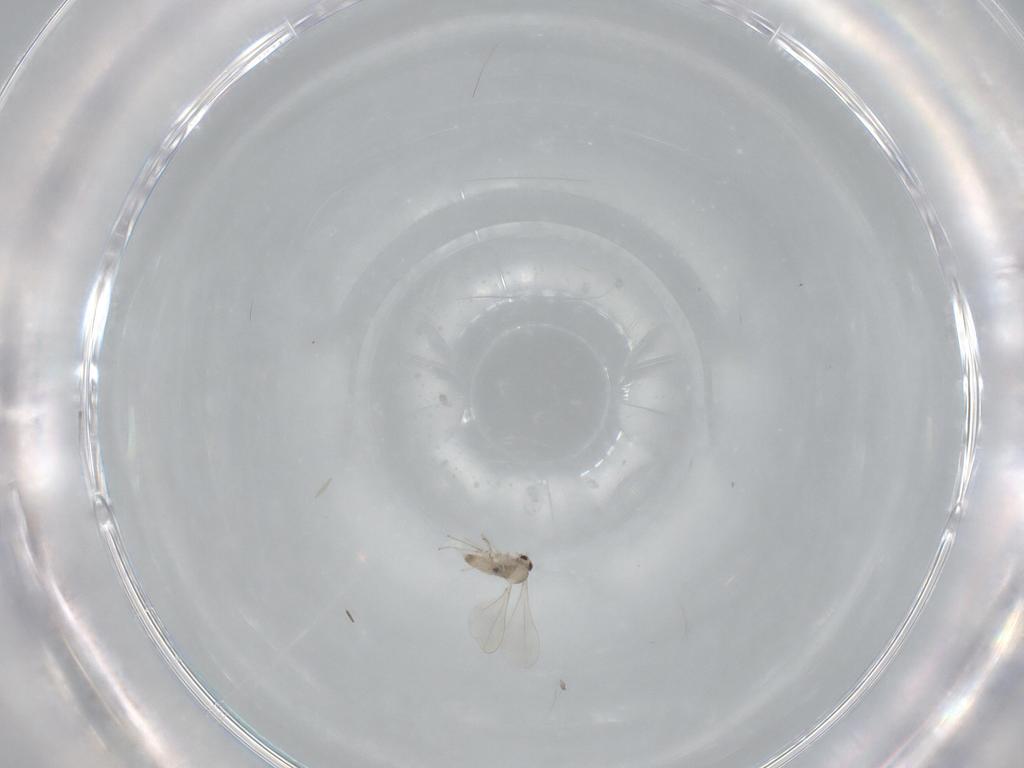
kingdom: Animalia
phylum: Arthropoda
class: Insecta
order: Diptera
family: Cecidomyiidae
